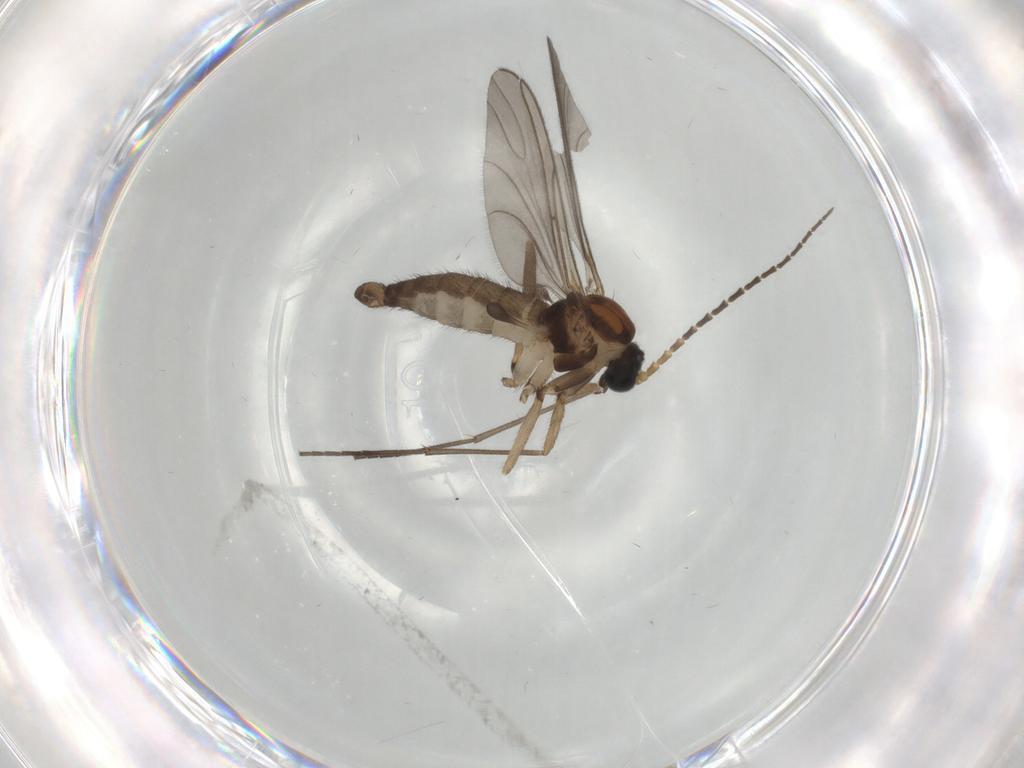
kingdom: Animalia
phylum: Arthropoda
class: Insecta
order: Diptera
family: Sciaridae
